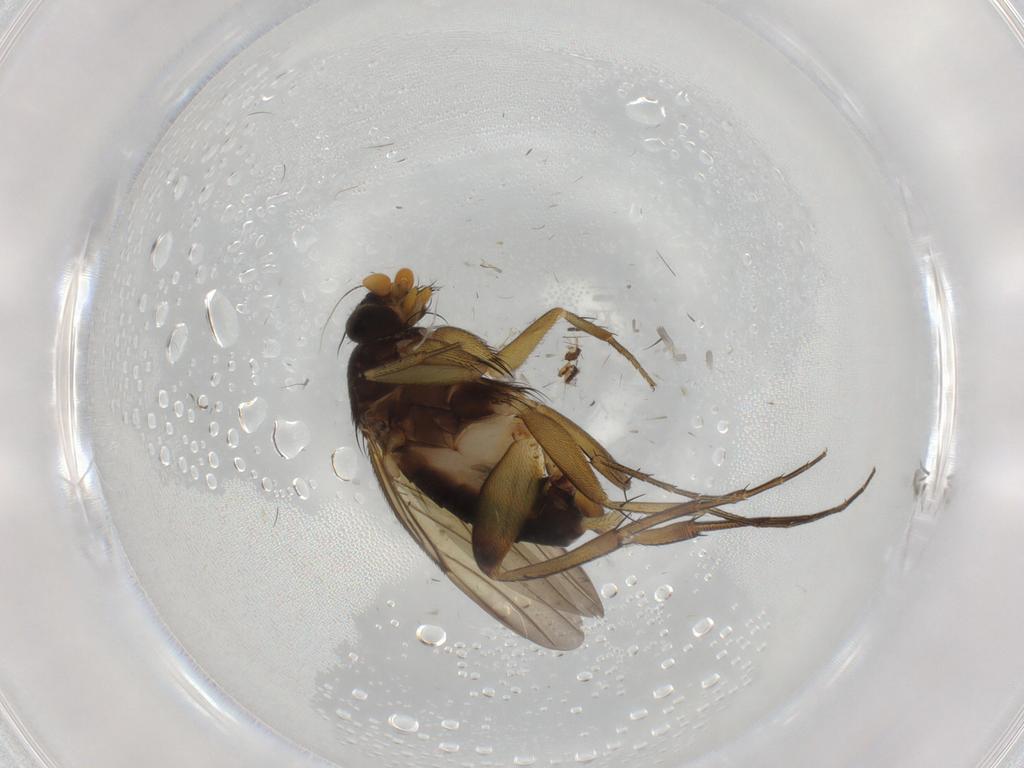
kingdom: Animalia
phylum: Arthropoda
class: Insecta
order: Diptera
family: Phoridae
